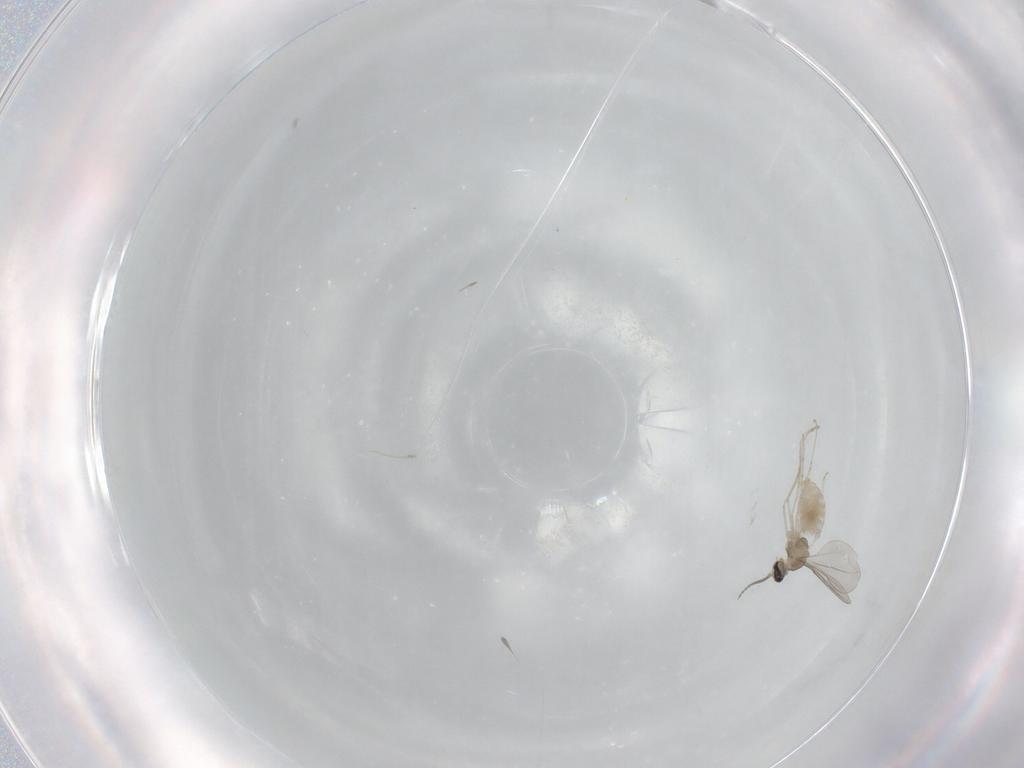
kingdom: Animalia
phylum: Arthropoda
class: Insecta
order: Diptera
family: Cecidomyiidae
